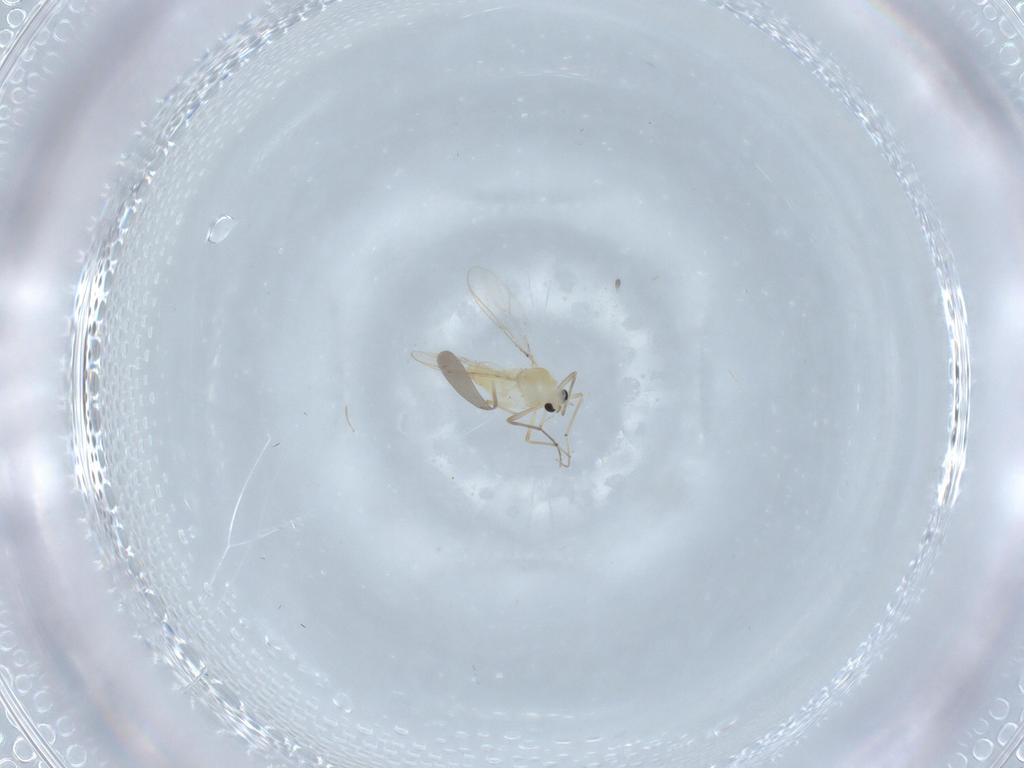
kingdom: Animalia
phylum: Arthropoda
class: Insecta
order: Diptera
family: Chironomidae
